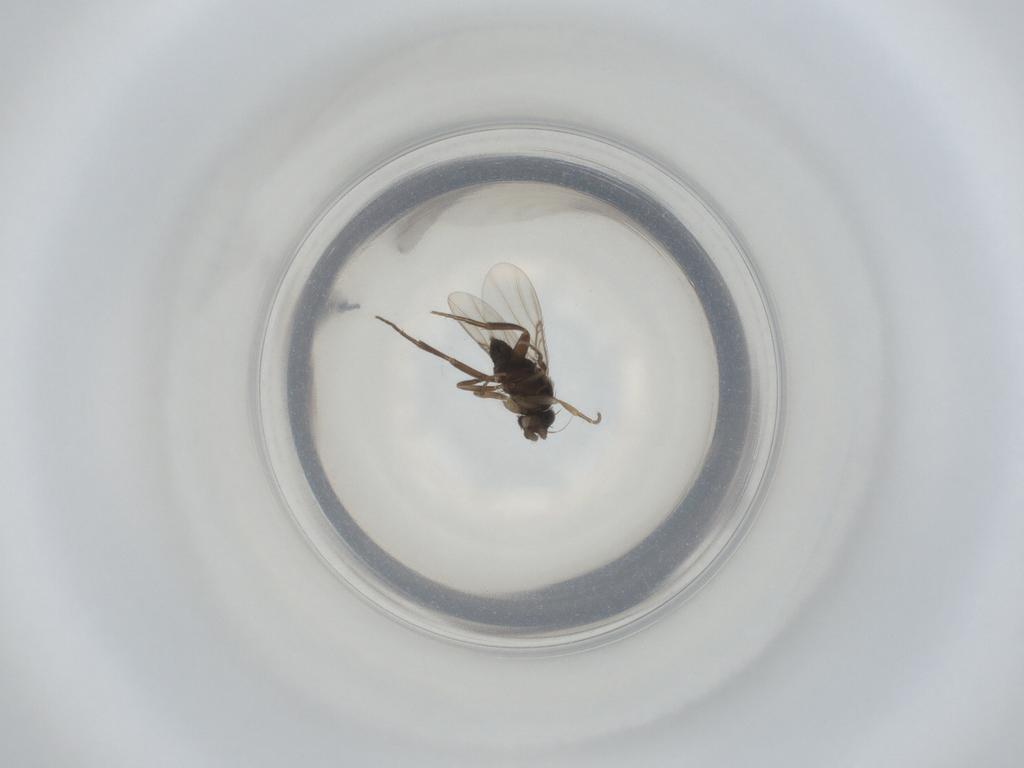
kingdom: Animalia
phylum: Arthropoda
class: Insecta
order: Diptera
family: Phoridae
